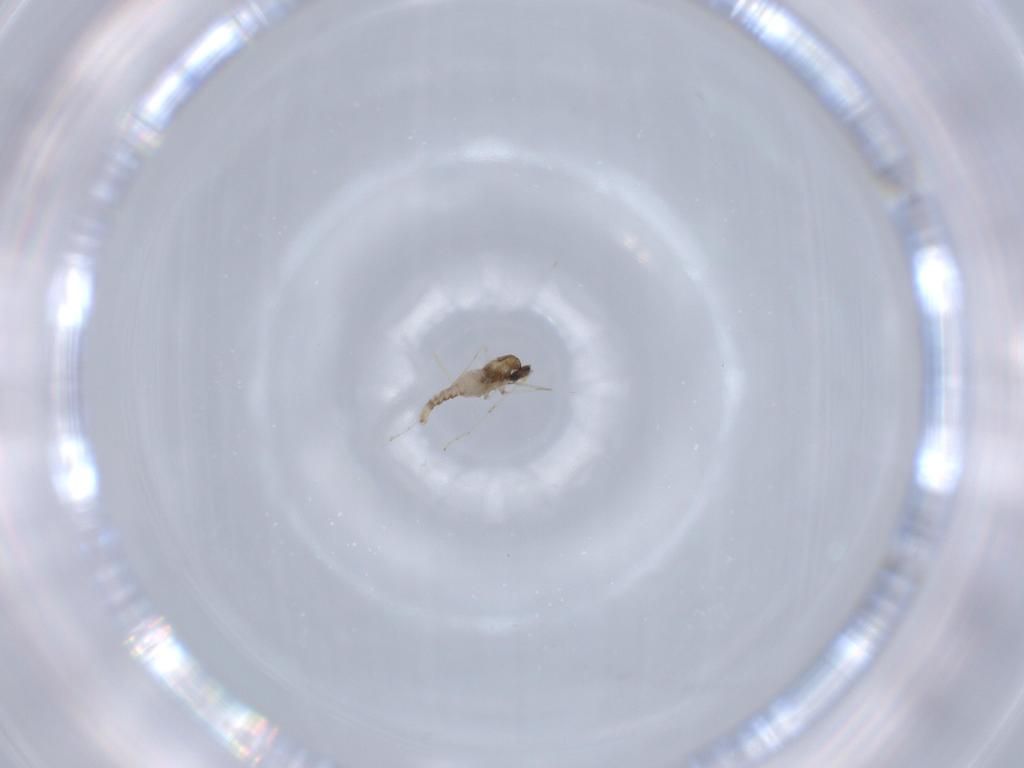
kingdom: Animalia
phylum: Arthropoda
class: Insecta
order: Diptera
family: Cecidomyiidae
